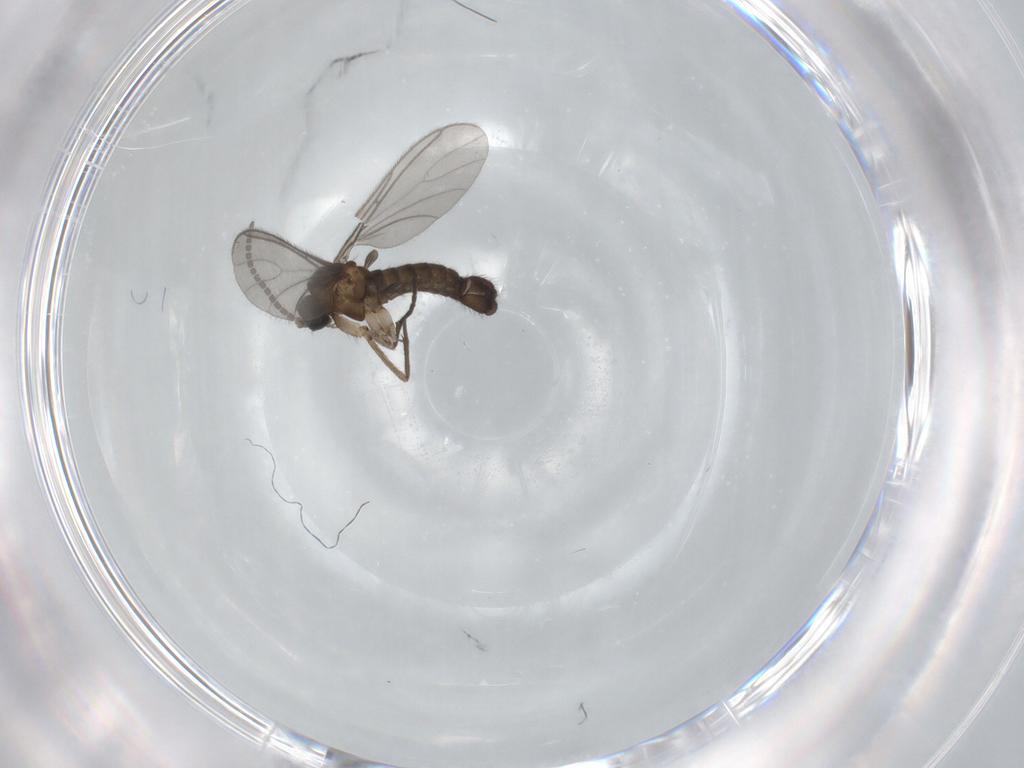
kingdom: Animalia
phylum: Arthropoda
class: Insecta
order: Diptera
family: Sciaridae
